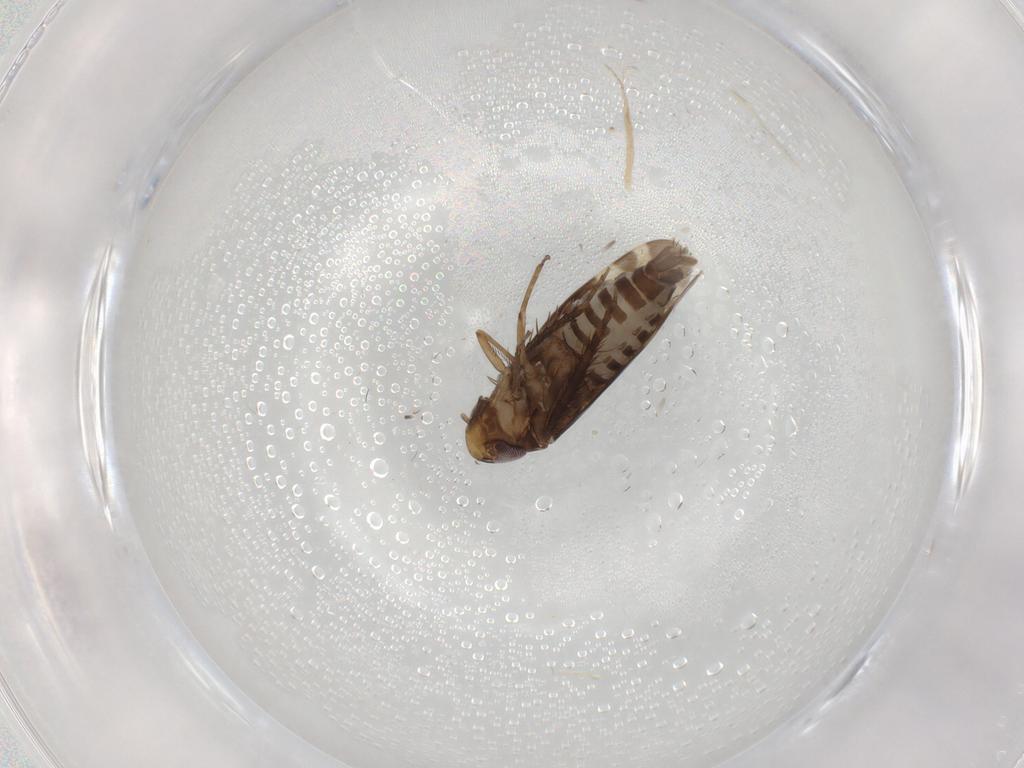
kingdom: Animalia
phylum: Arthropoda
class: Insecta
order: Hemiptera
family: Cicadellidae
